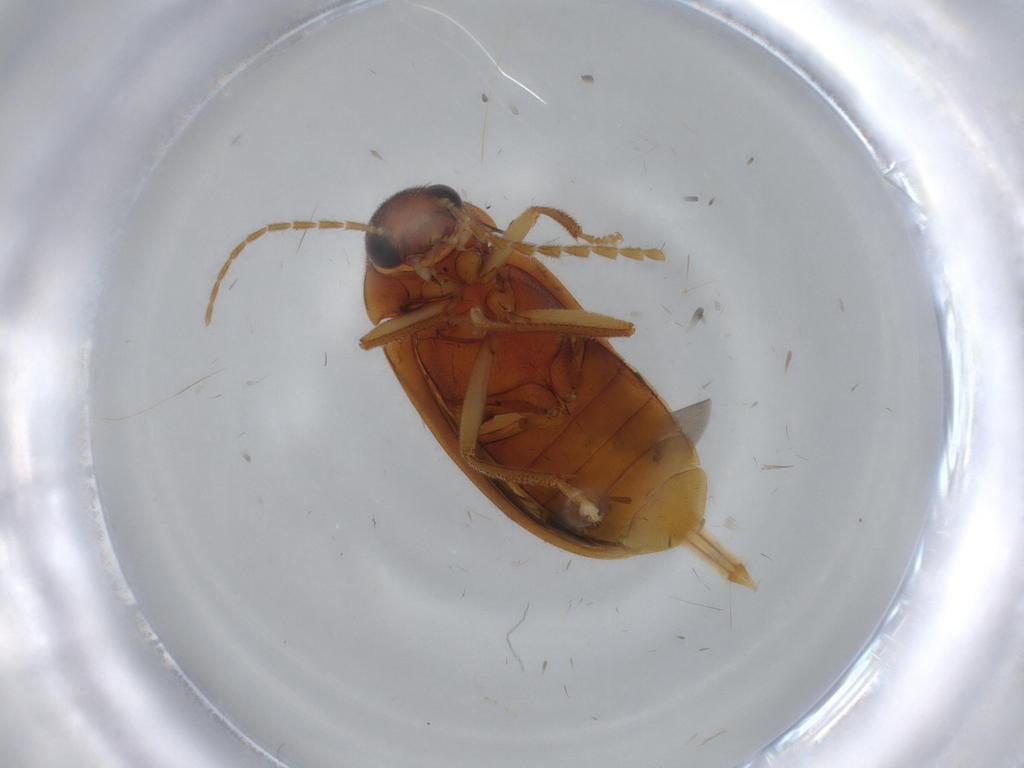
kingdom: Animalia
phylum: Arthropoda
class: Insecta
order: Coleoptera
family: Ptilodactylidae
